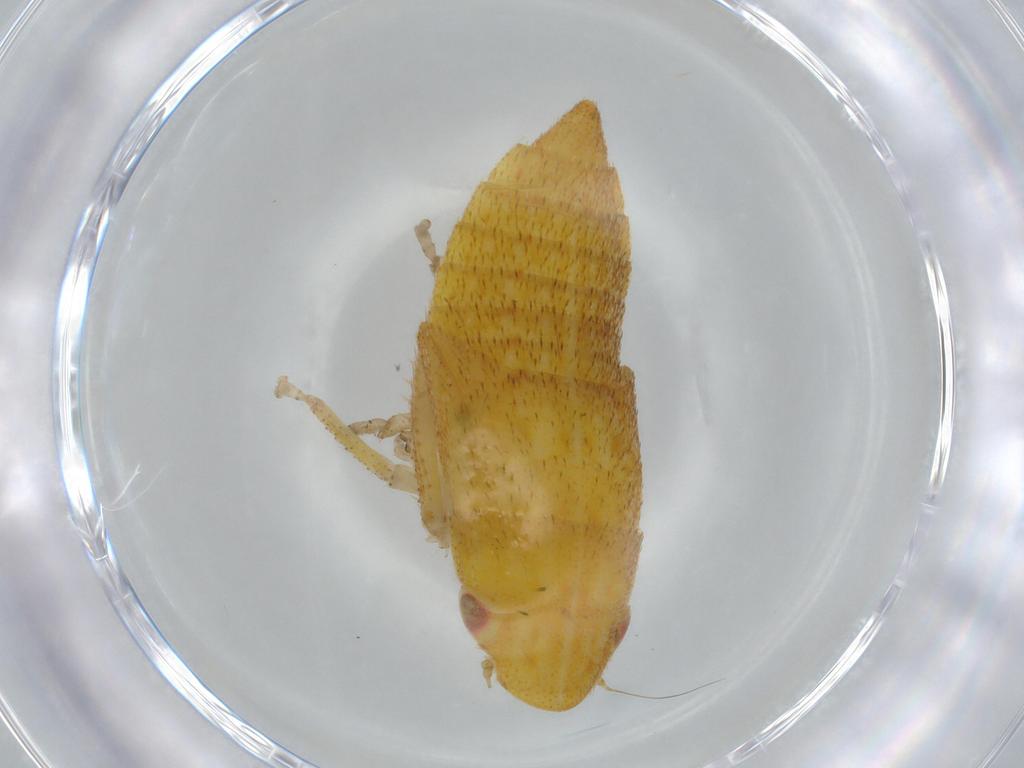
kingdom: Animalia
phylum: Arthropoda
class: Insecta
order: Hemiptera
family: Cicadellidae
